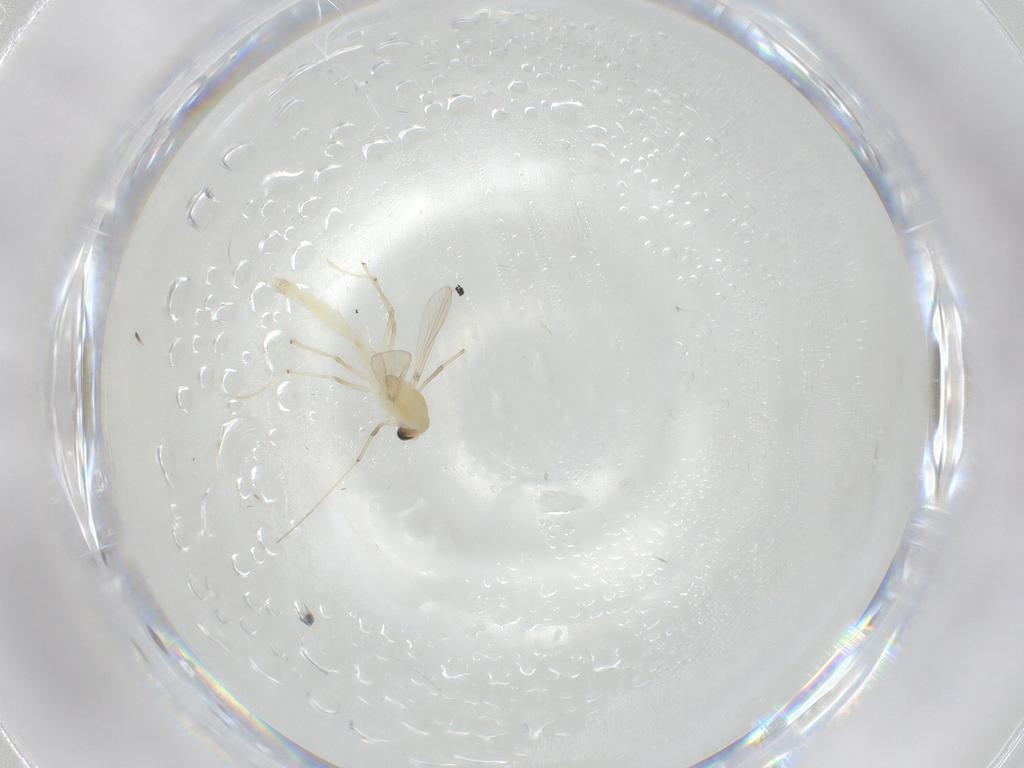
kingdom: Animalia
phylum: Arthropoda
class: Insecta
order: Diptera
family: Chironomidae
